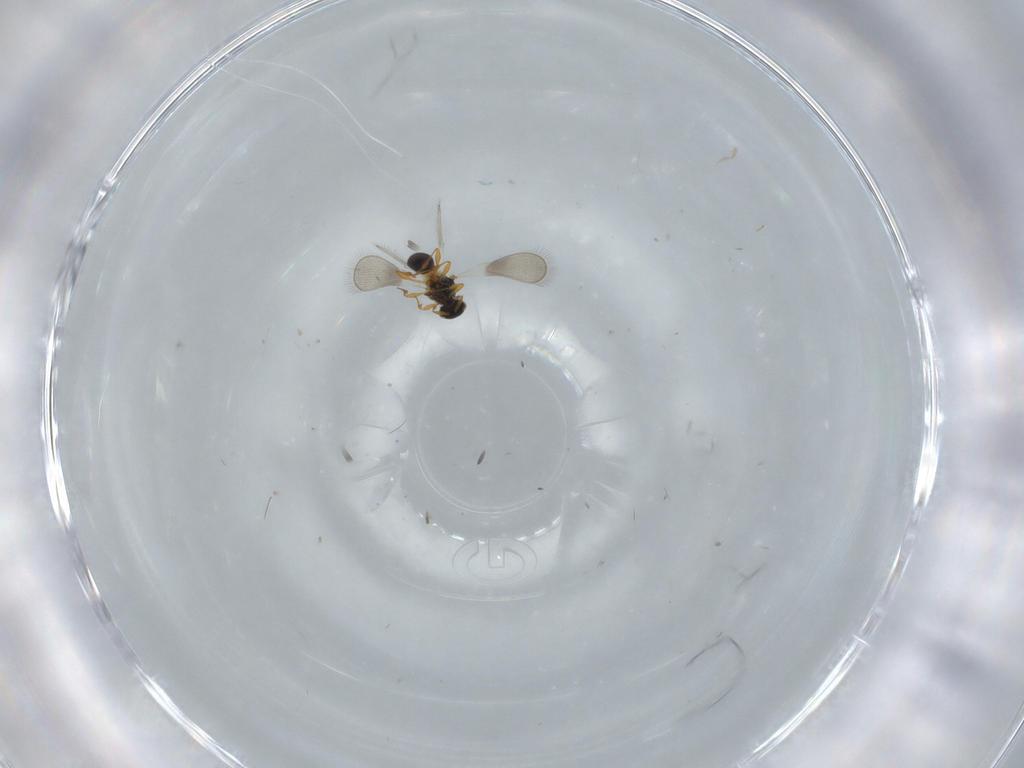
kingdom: Animalia
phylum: Arthropoda
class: Insecta
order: Hymenoptera
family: Platygastridae
